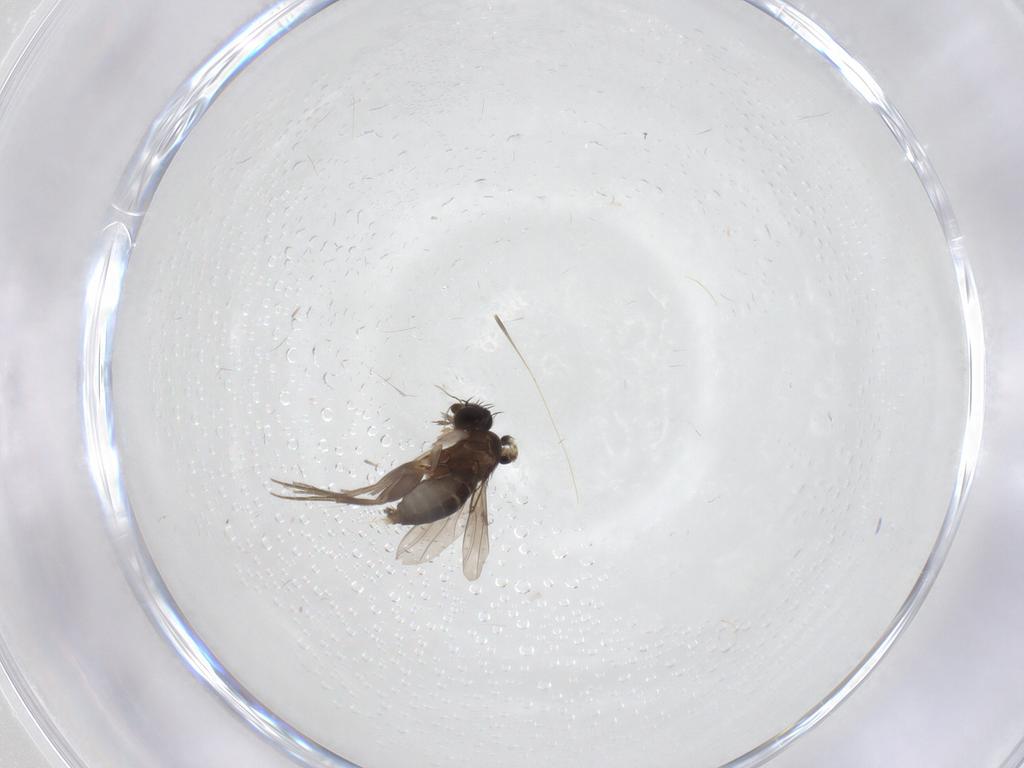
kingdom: Animalia
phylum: Arthropoda
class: Insecta
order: Diptera
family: Phoridae
